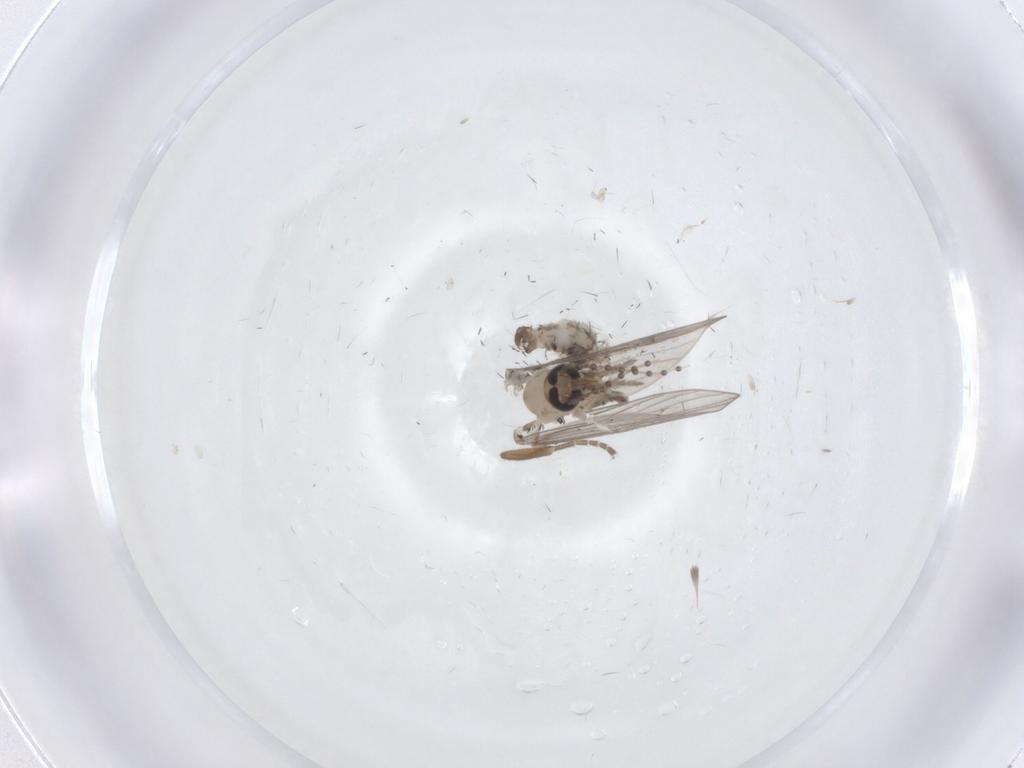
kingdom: Animalia
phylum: Arthropoda
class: Insecta
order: Diptera
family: Psychodidae
